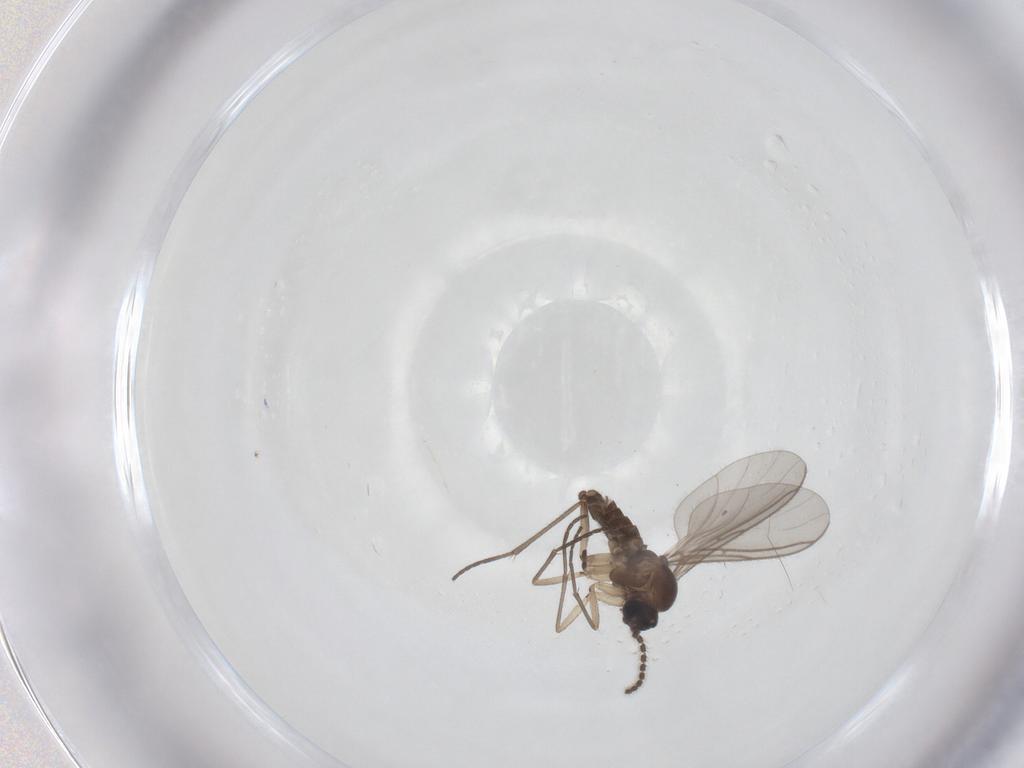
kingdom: Animalia
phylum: Arthropoda
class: Insecta
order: Diptera
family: Sciaridae
